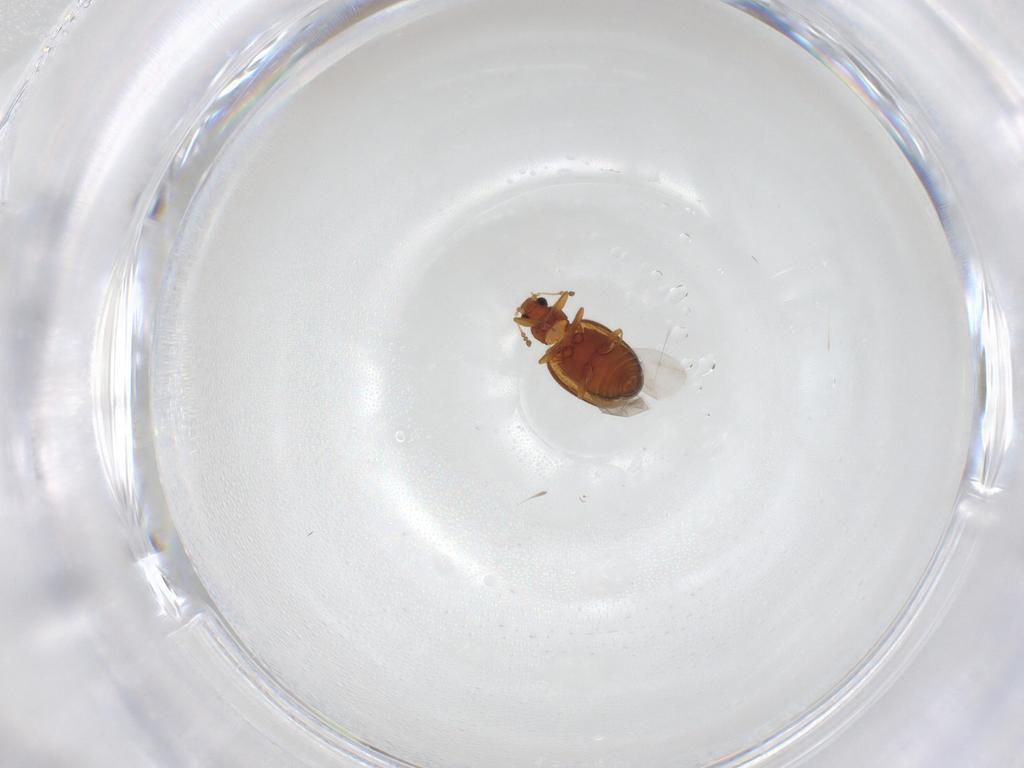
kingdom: Animalia
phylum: Arthropoda
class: Insecta
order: Coleoptera
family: Latridiidae
